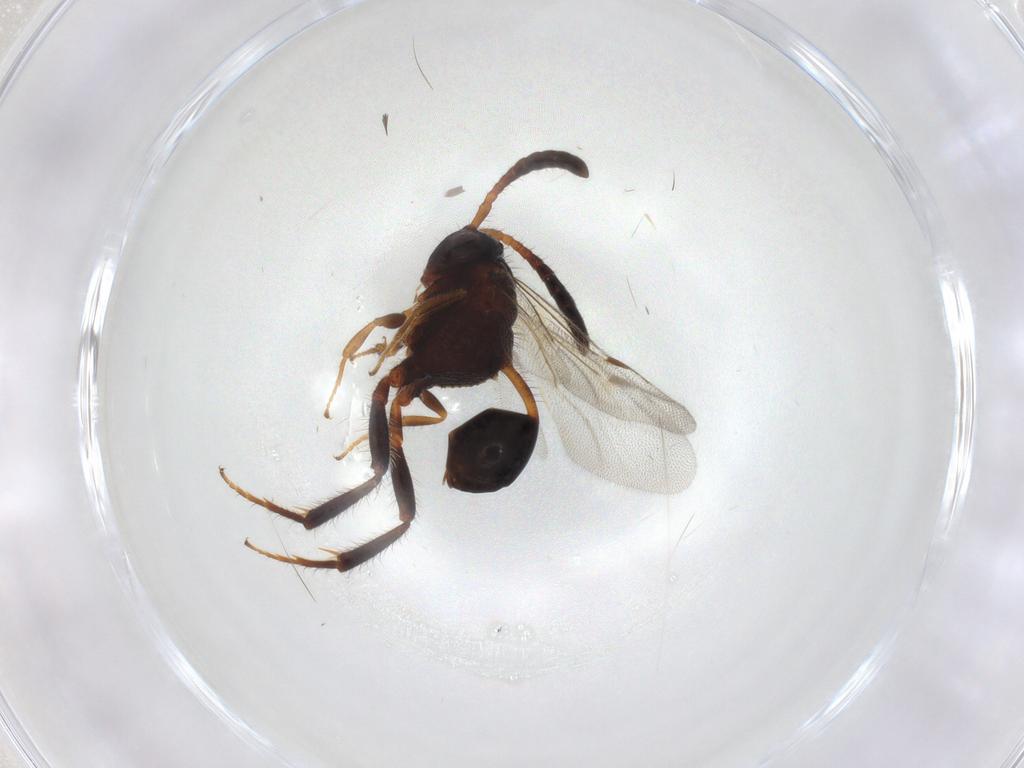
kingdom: Animalia
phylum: Arthropoda
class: Insecta
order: Hymenoptera
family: Evaniidae
